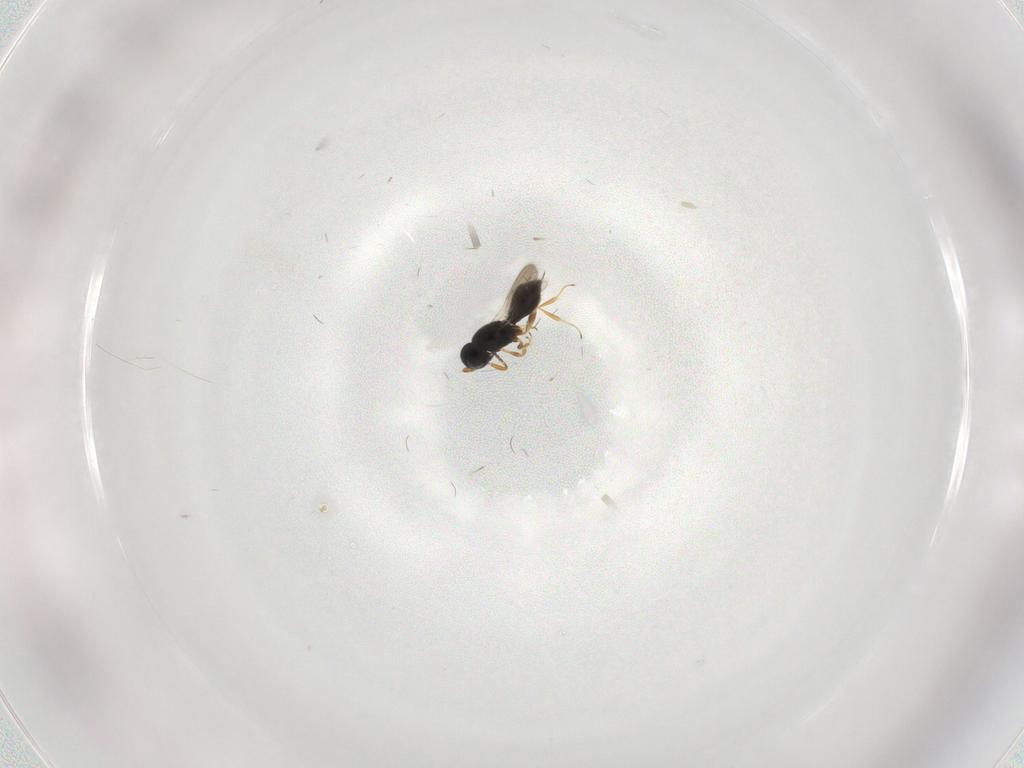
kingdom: Animalia
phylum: Arthropoda
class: Insecta
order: Hymenoptera
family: Scelionidae
